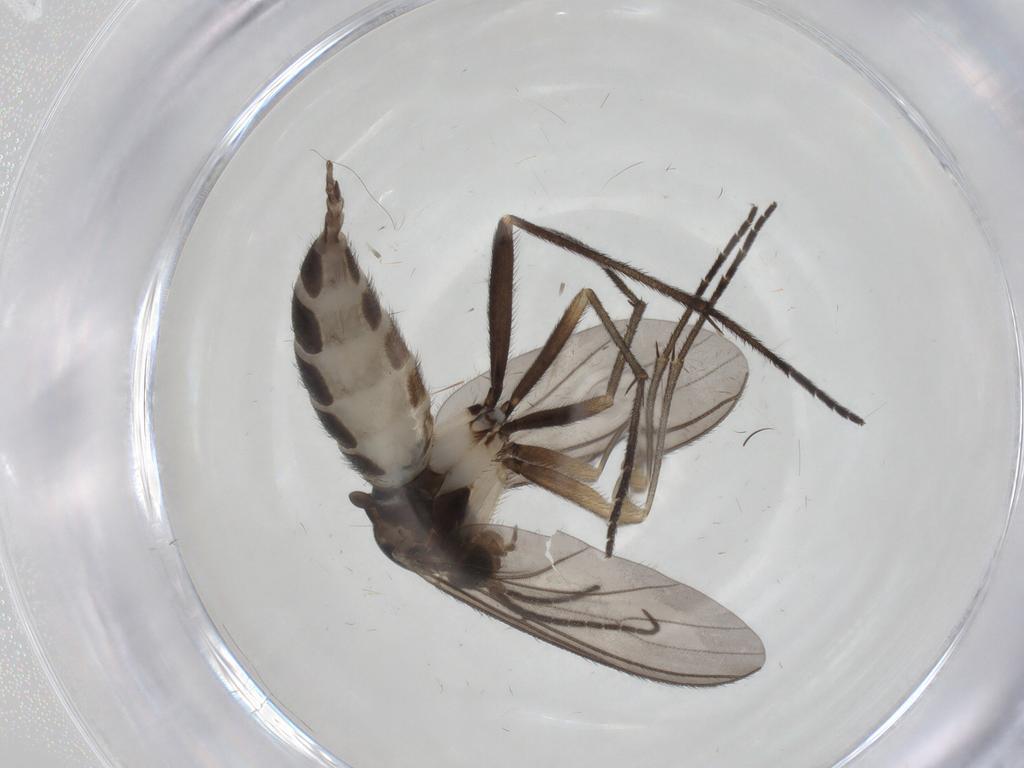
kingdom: Animalia
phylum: Arthropoda
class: Insecta
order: Diptera
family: Sciaridae
